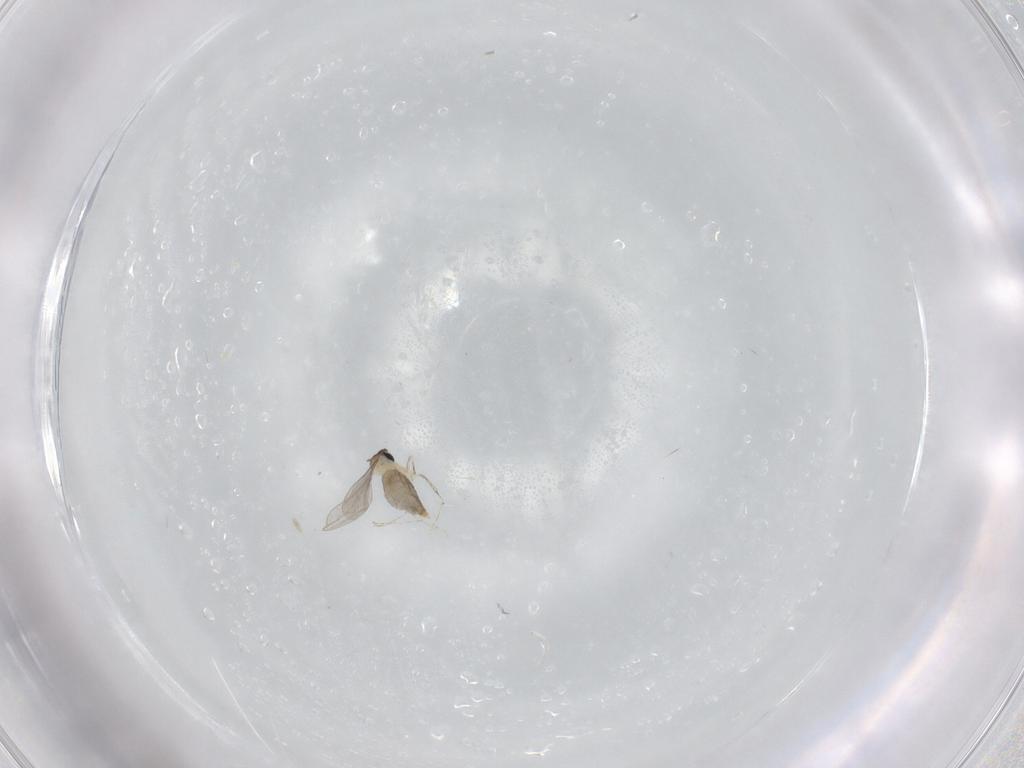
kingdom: Animalia
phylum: Arthropoda
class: Insecta
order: Diptera
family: Cecidomyiidae
